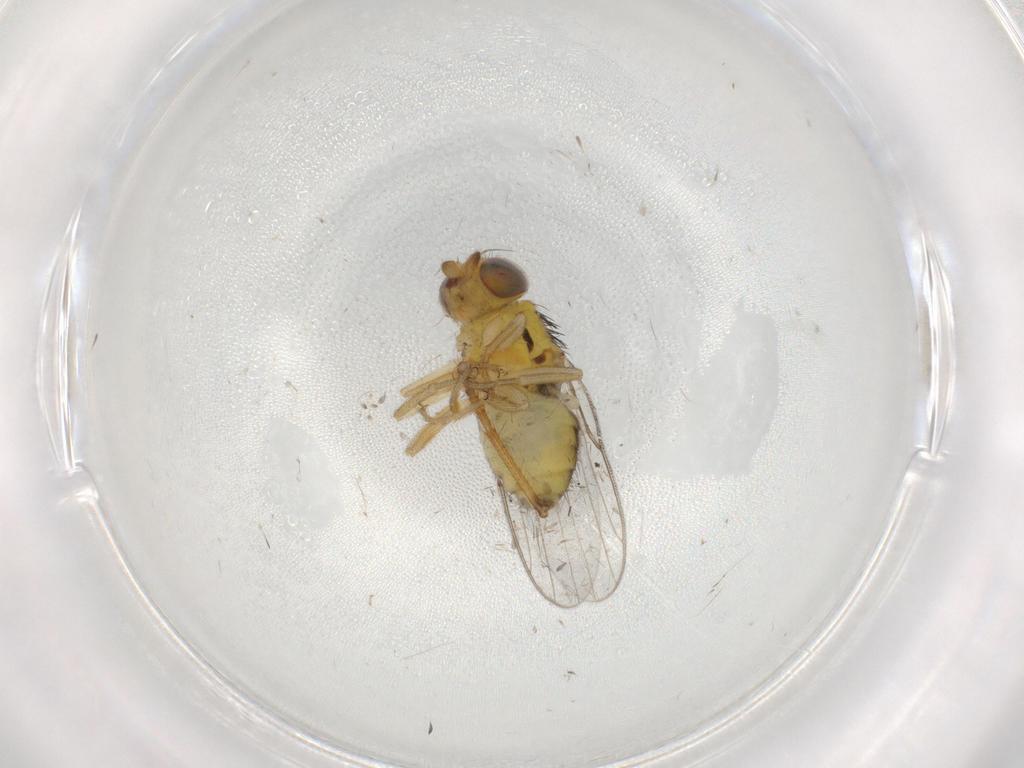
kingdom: Animalia
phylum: Arthropoda
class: Insecta
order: Diptera
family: Chloropidae
